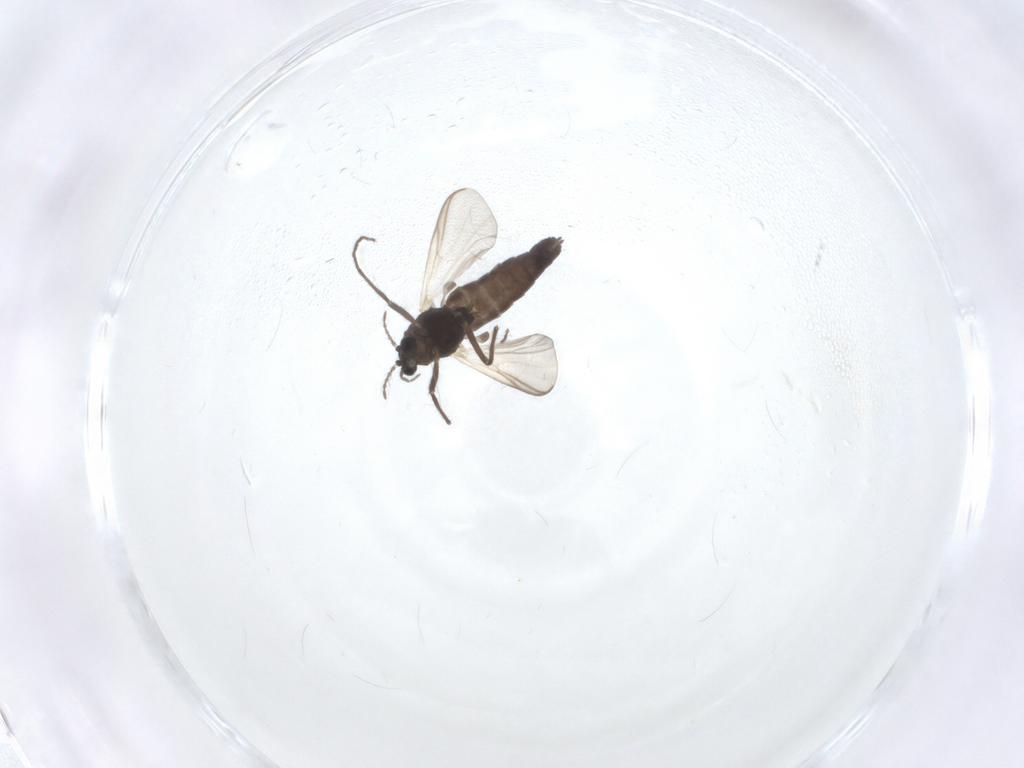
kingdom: Animalia
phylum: Arthropoda
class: Insecta
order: Diptera
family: Chironomidae
